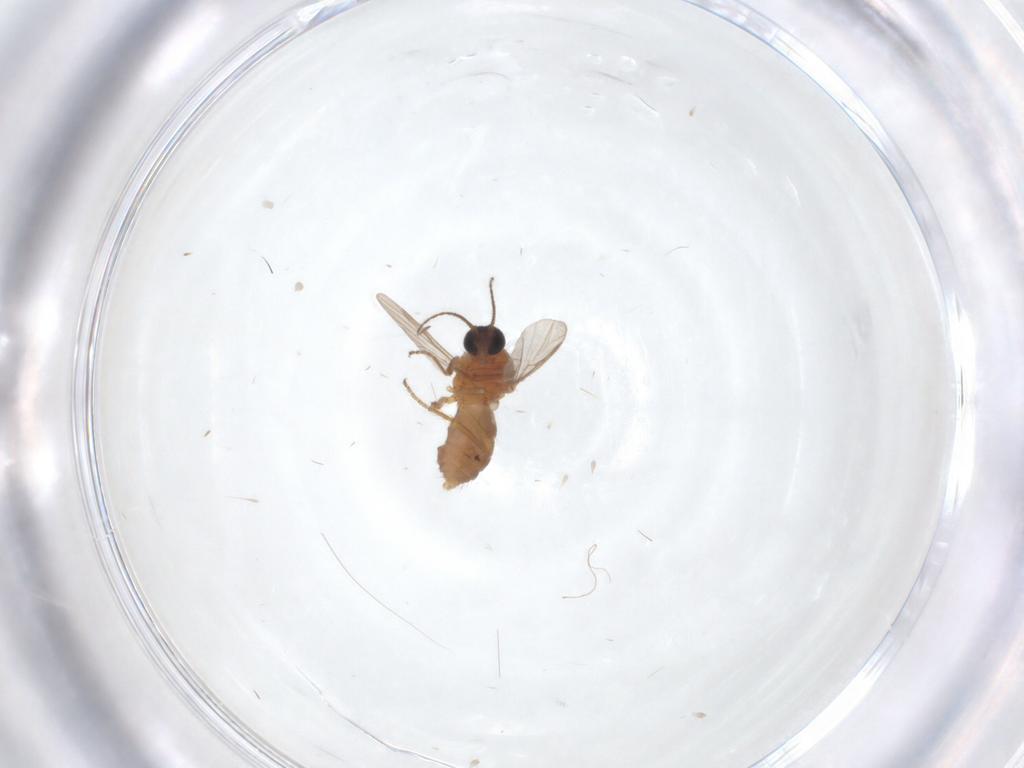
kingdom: Animalia
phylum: Arthropoda
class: Insecta
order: Diptera
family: Ceratopogonidae
